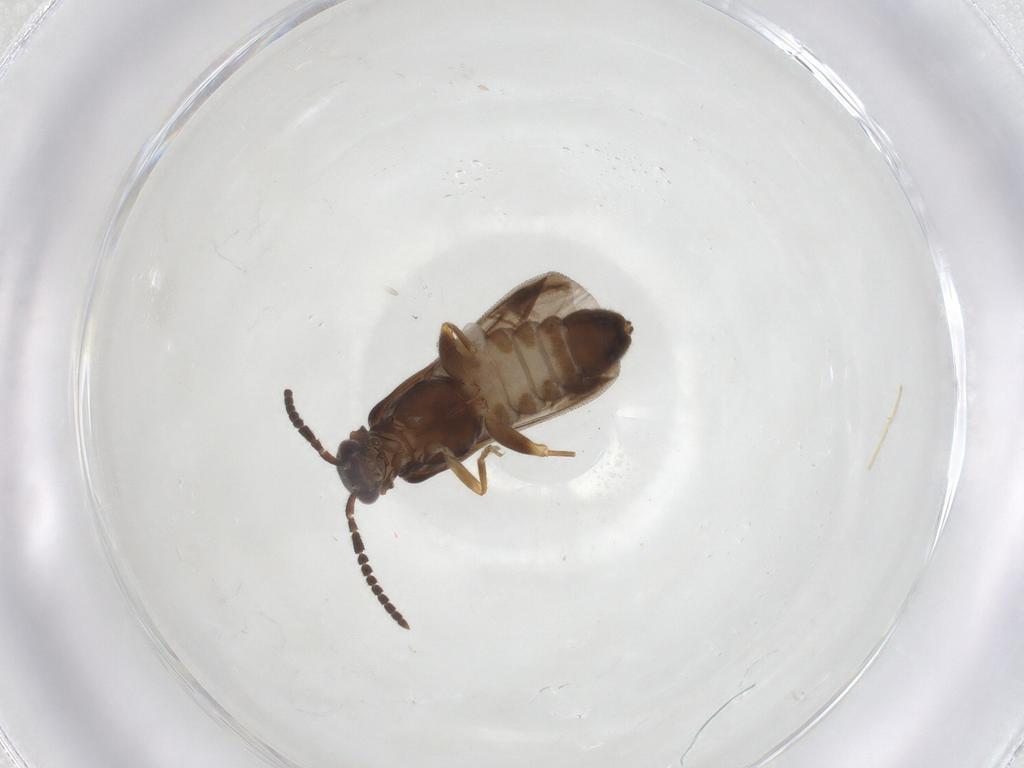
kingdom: Animalia
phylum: Arthropoda
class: Insecta
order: Coleoptera
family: Cantharidae
